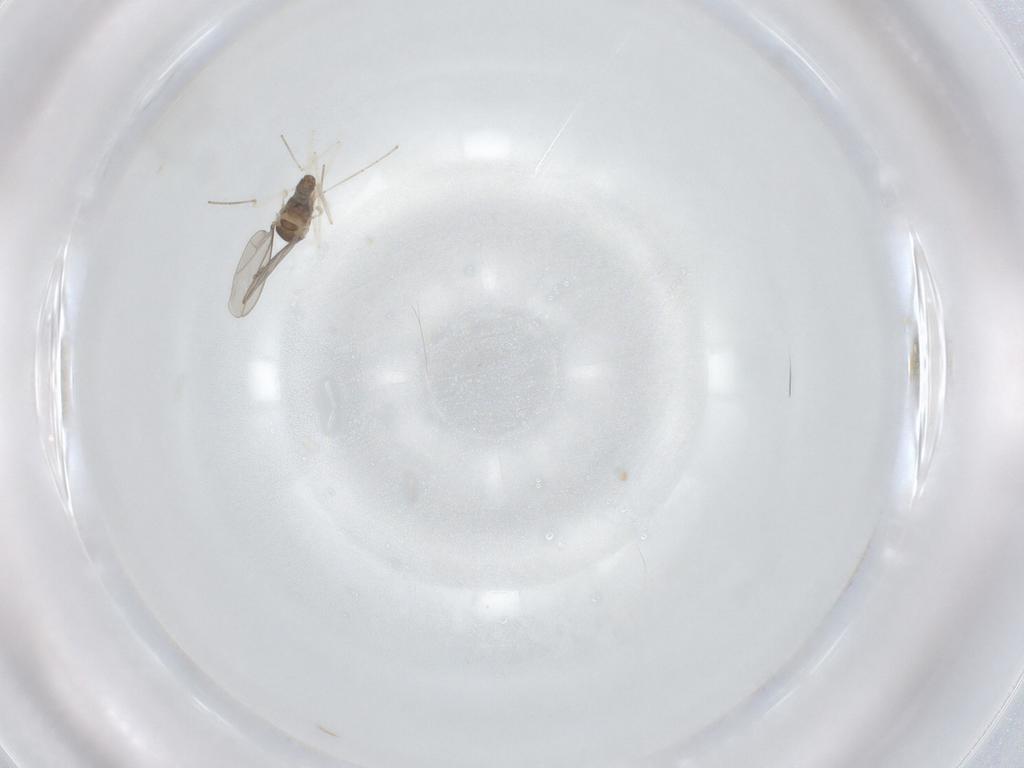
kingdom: Animalia
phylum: Arthropoda
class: Insecta
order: Diptera
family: Cecidomyiidae
